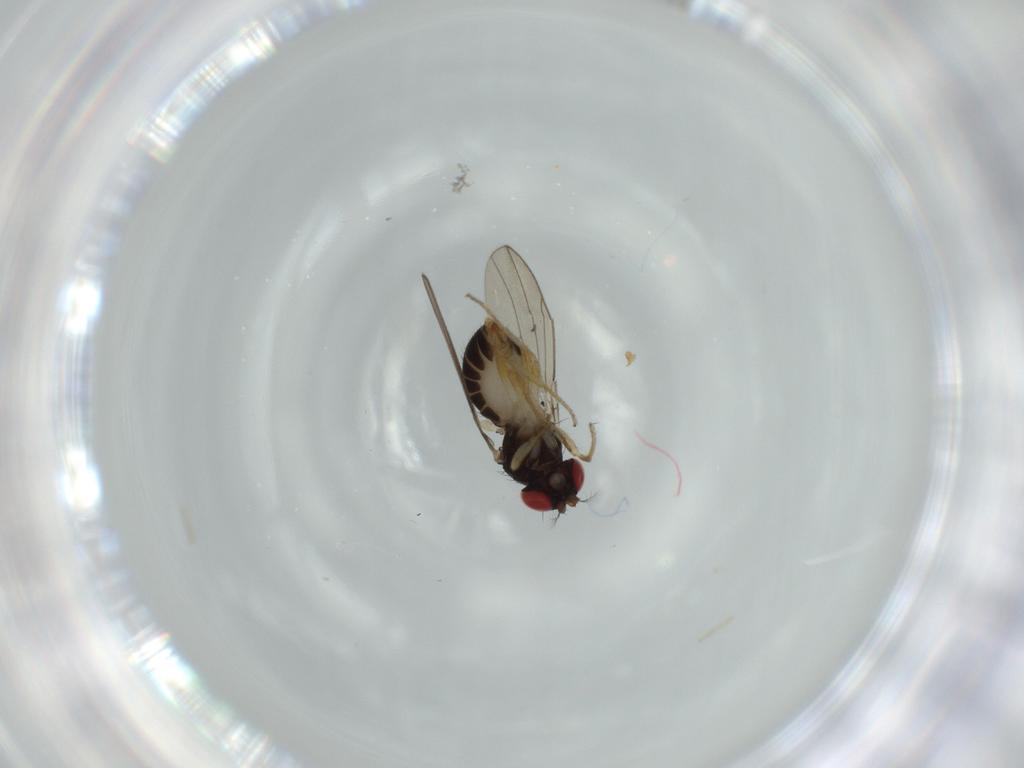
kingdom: Animalia
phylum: Arthropoda
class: Insecta
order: Diptera
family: Drosophilidae
